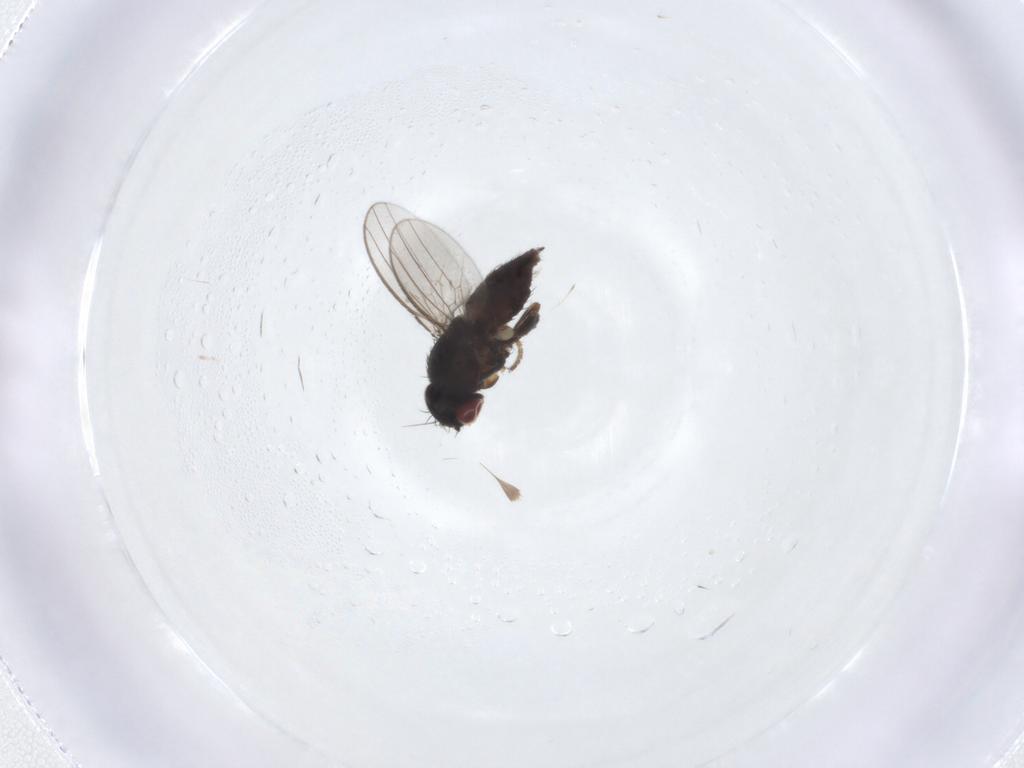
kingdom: Animalia
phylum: Arthropoda
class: Insecta
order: Diptera
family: Milichiidae
